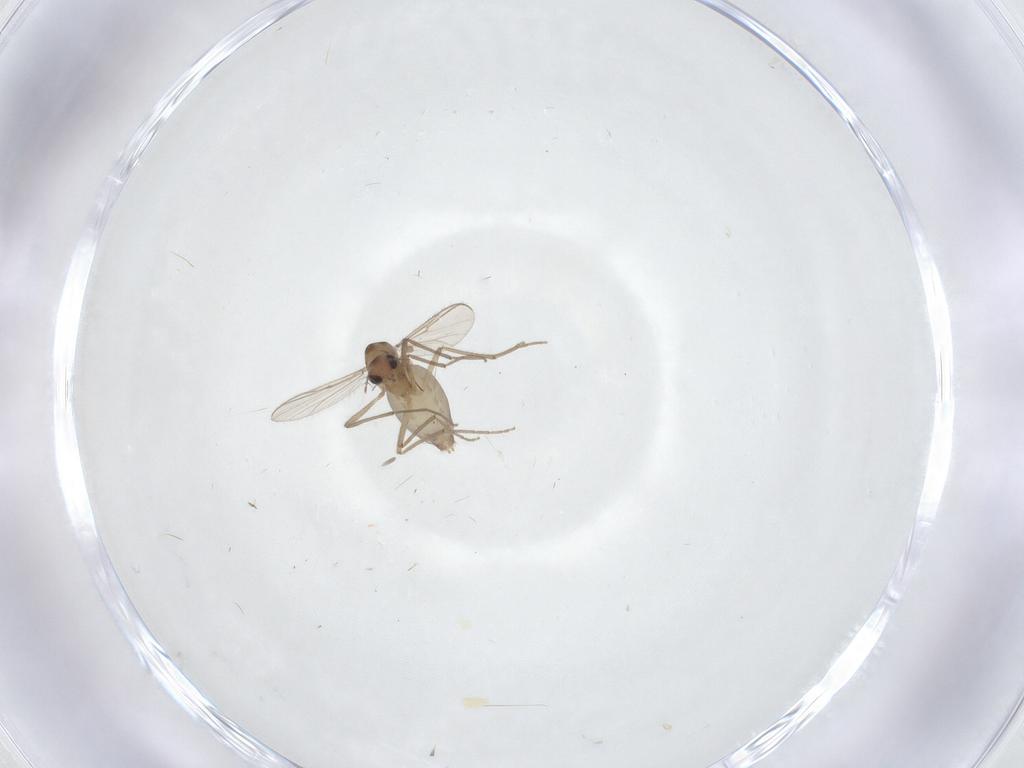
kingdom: Animalia
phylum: Arthropoda
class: Insecta
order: Diptera
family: Chironomidae
